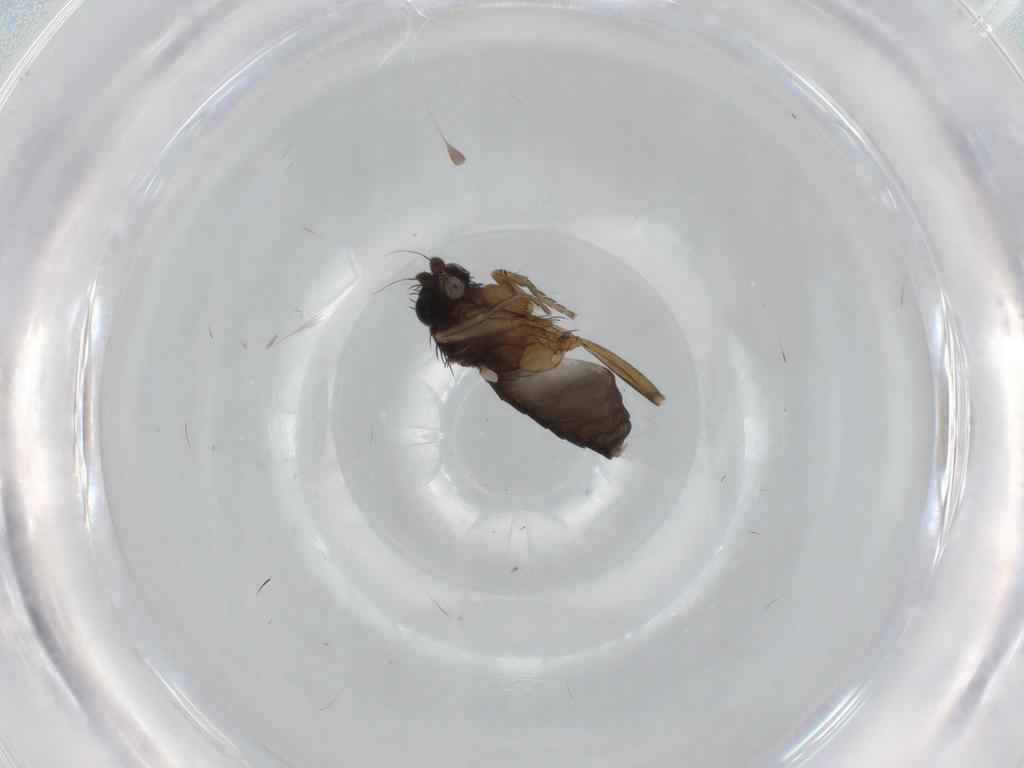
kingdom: Animalia
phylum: Arthropoda
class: Insecta
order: Diptera
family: Phoridae
